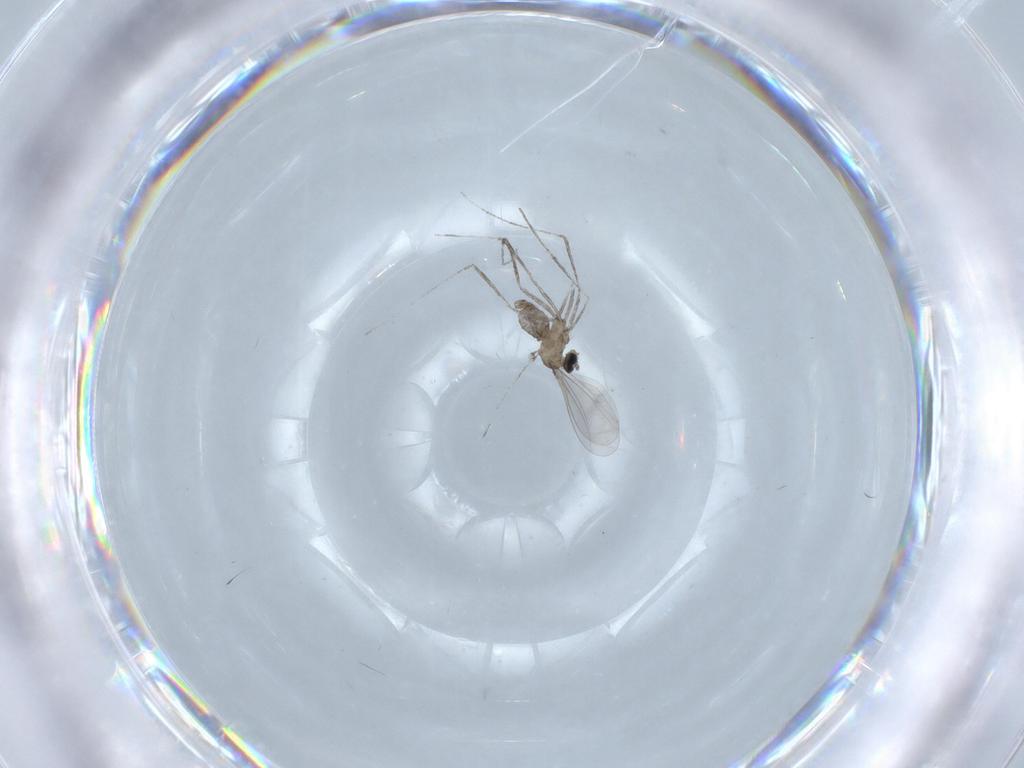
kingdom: Animalia
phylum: Arthropoda
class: Insecta
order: Diptera
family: Cecidomyiidae
